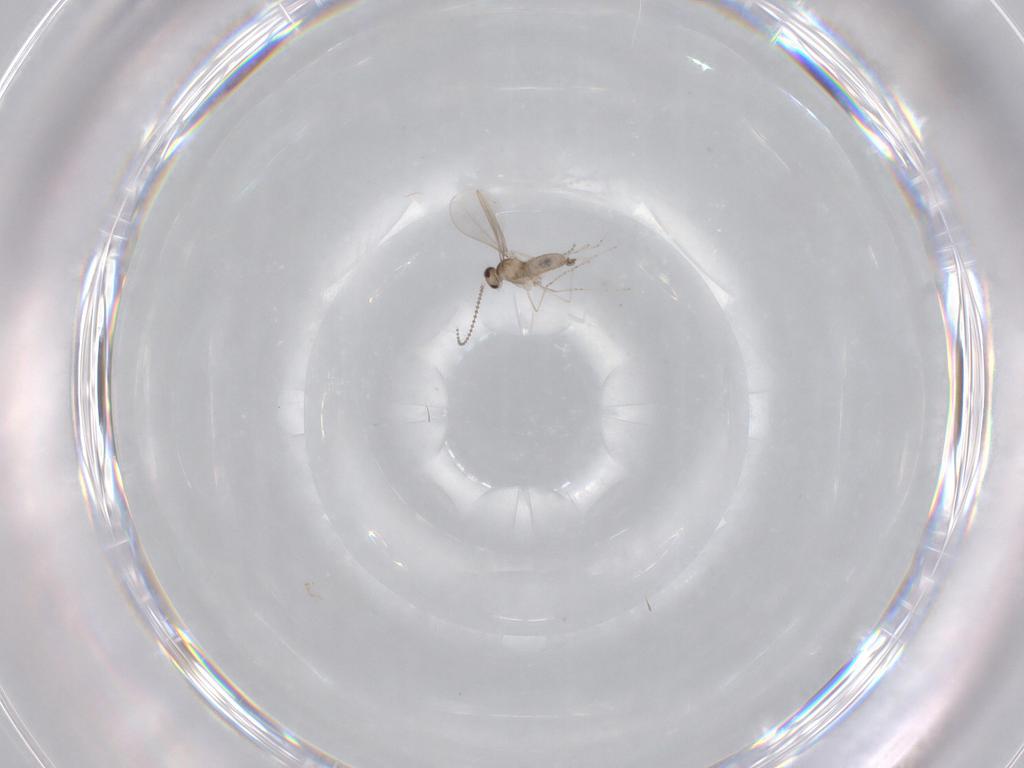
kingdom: Animalia
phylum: Arthropoda
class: Insecta
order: Diptera
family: Cecidomyiidae
